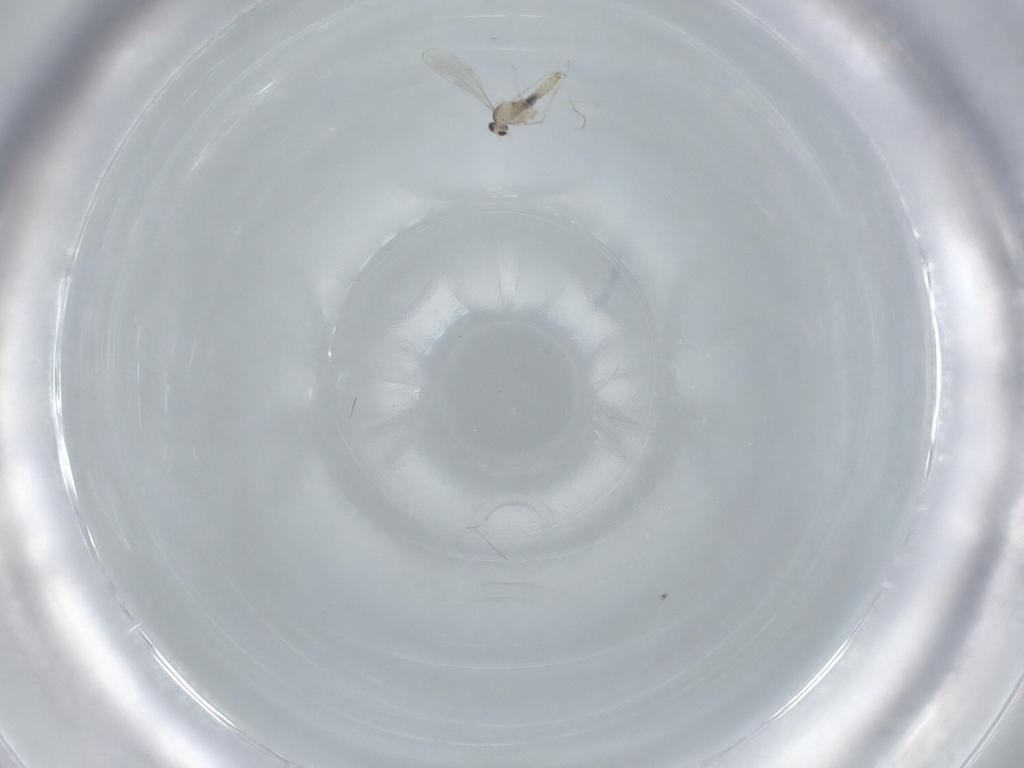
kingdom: Animalia
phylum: Arthropoda
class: Insecta
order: Diptera
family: Cecidomyiidae
